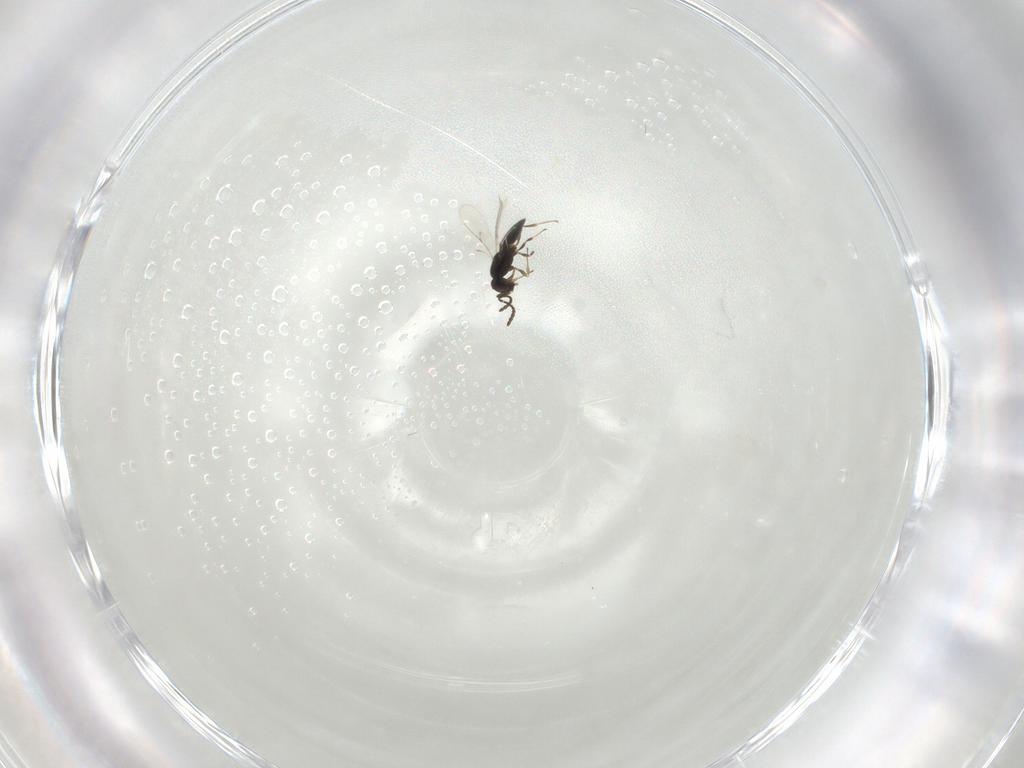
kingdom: Animalia
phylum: Arthropoda
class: Insecta
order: Hymenoptera
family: Scelionidae
